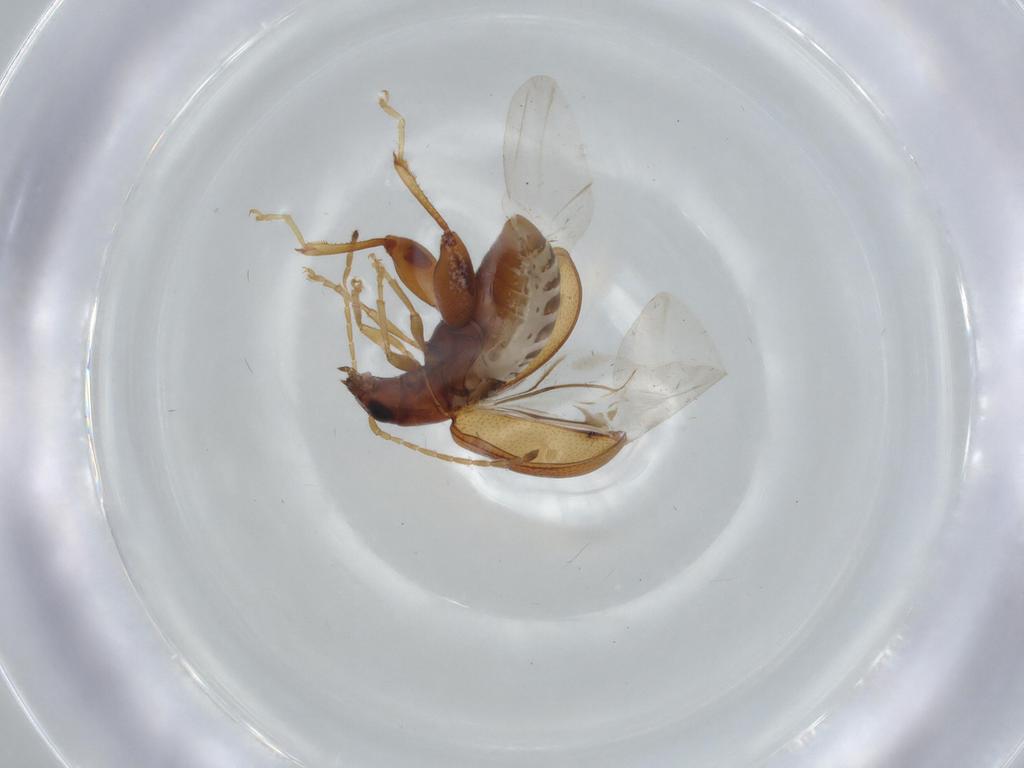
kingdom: Animalia
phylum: Arthropoda
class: Insecta
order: Coleoptera
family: Chrysomelidae
